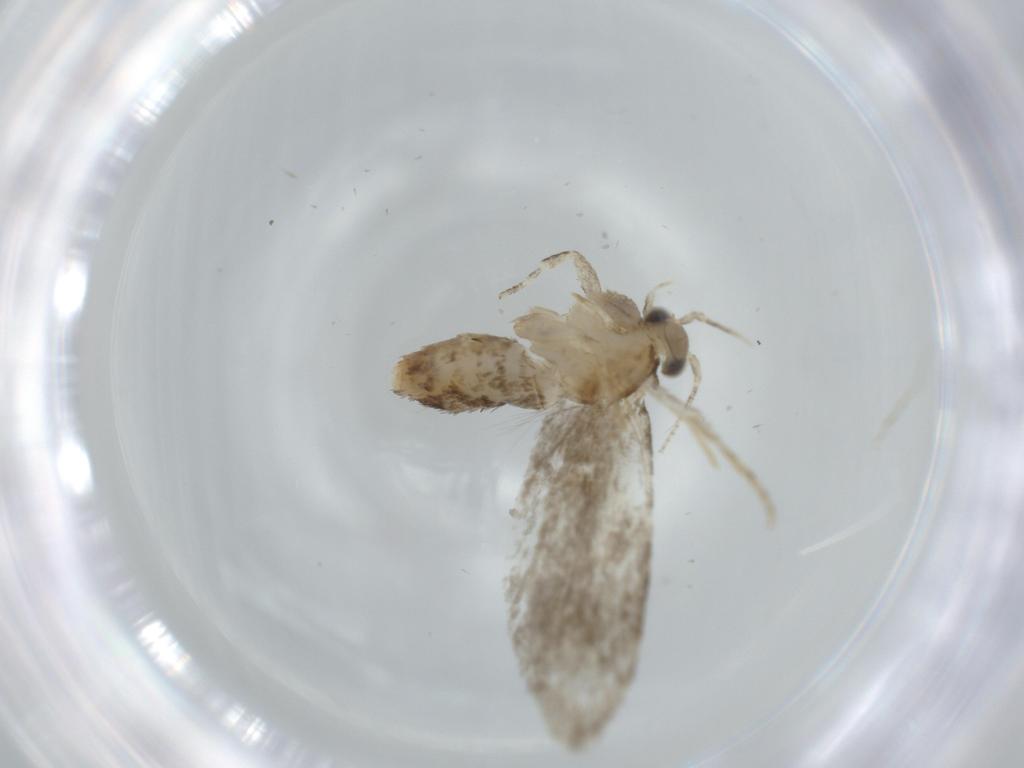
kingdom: Animalia
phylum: Arthropoda
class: Insecta
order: Lepidoptera
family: Tineidae
